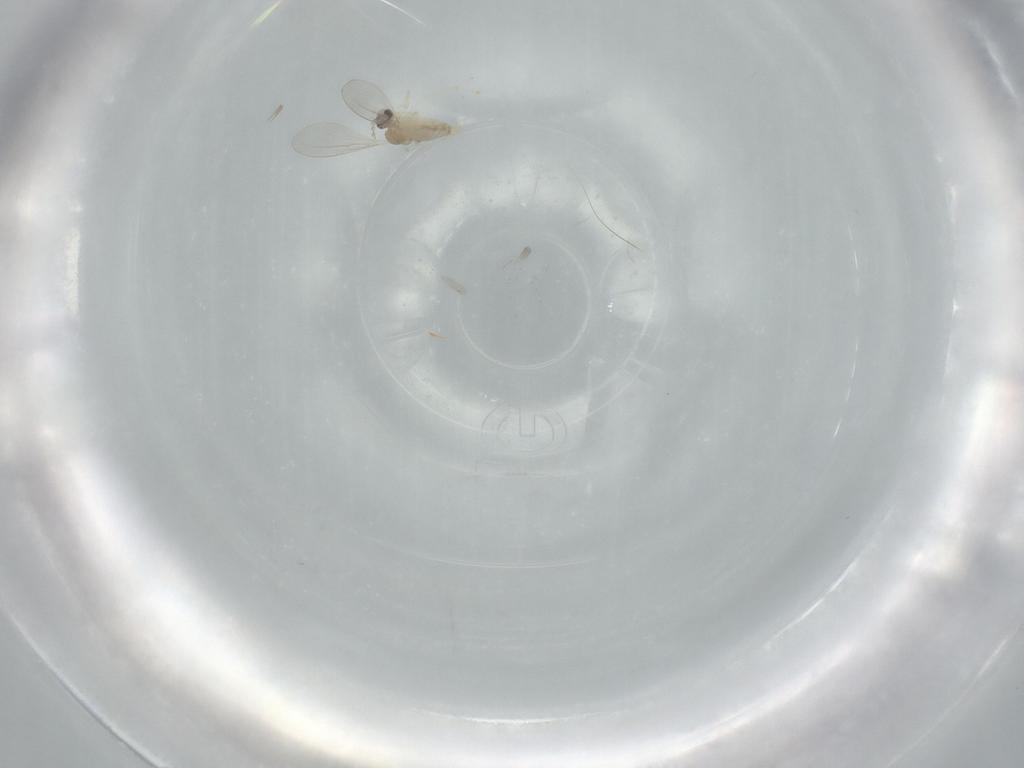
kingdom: Animalia
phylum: Arthropoda
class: Insecta
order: Diptera
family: Cecidomyiidae
